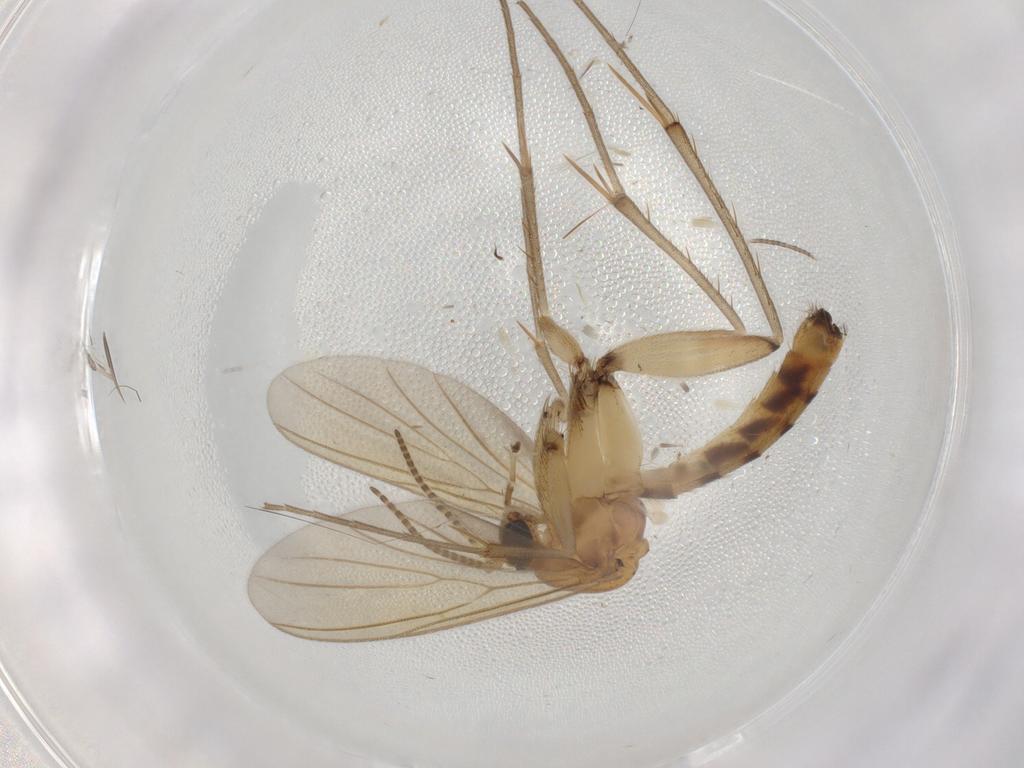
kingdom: Animalia
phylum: Arthropoda
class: Insecta
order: Diptera
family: Mycetophilidae
